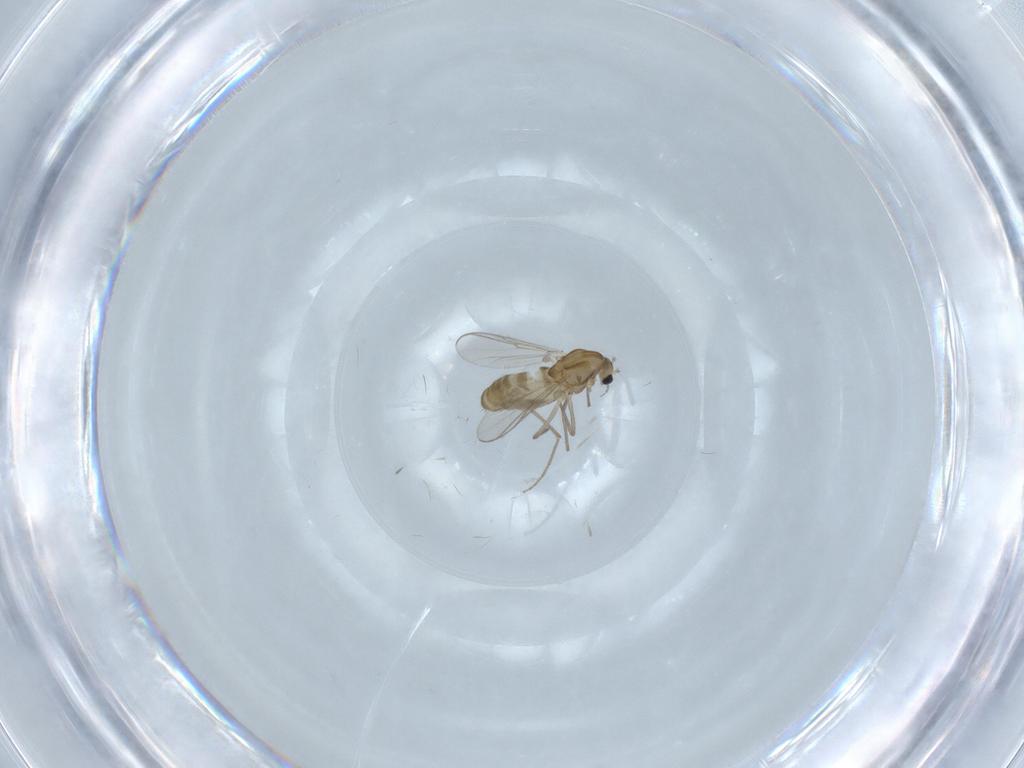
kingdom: Animalia
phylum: Arthropoda
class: Insecta
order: Diptera
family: Chironomidae
